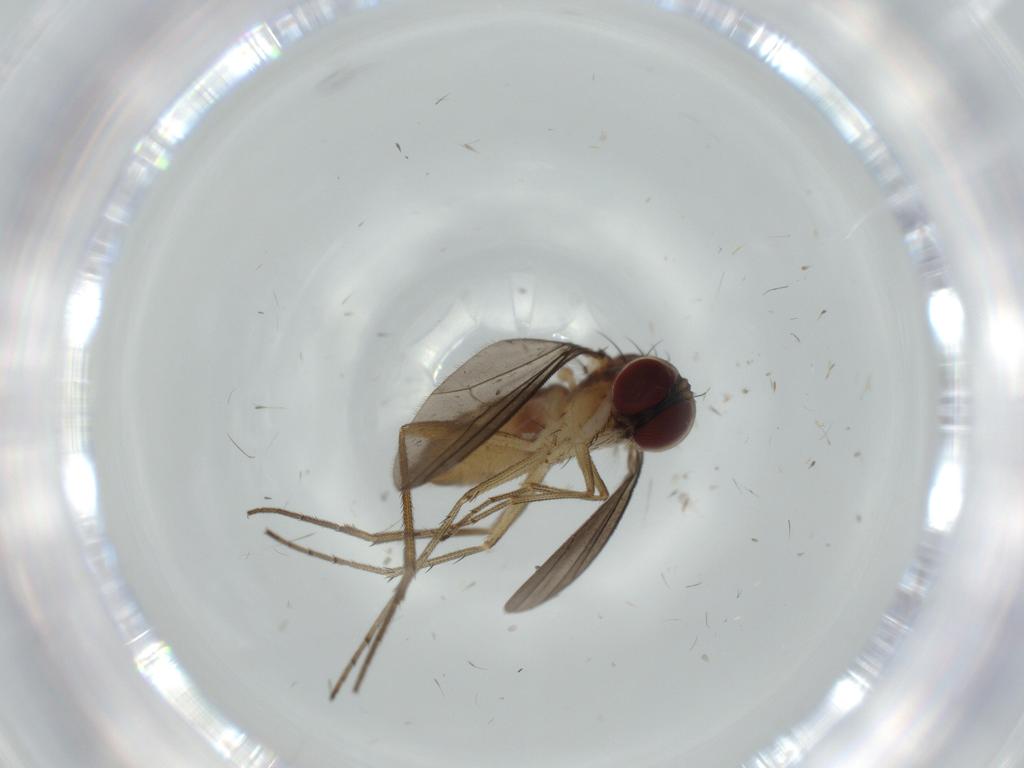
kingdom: Animalia
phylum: Arthropoda
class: Insecta
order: Diptera
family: Dolichopodidae
